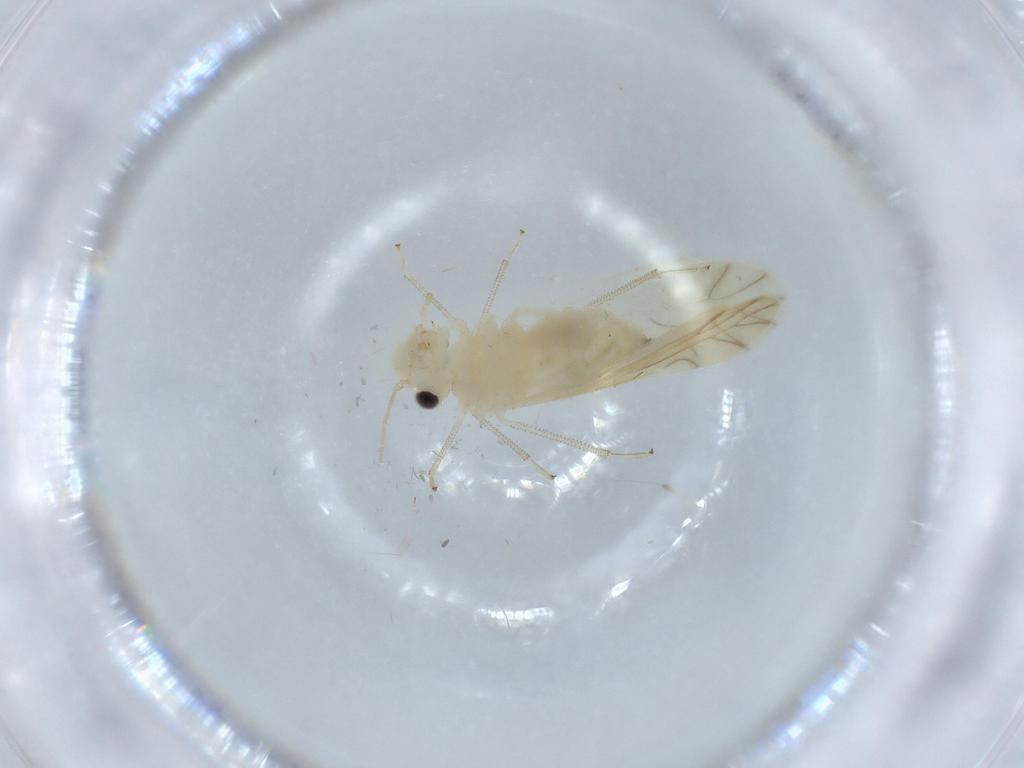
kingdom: Animalia
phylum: Arthropoda
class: Insecta
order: Psocodea
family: Caeciliusidae
